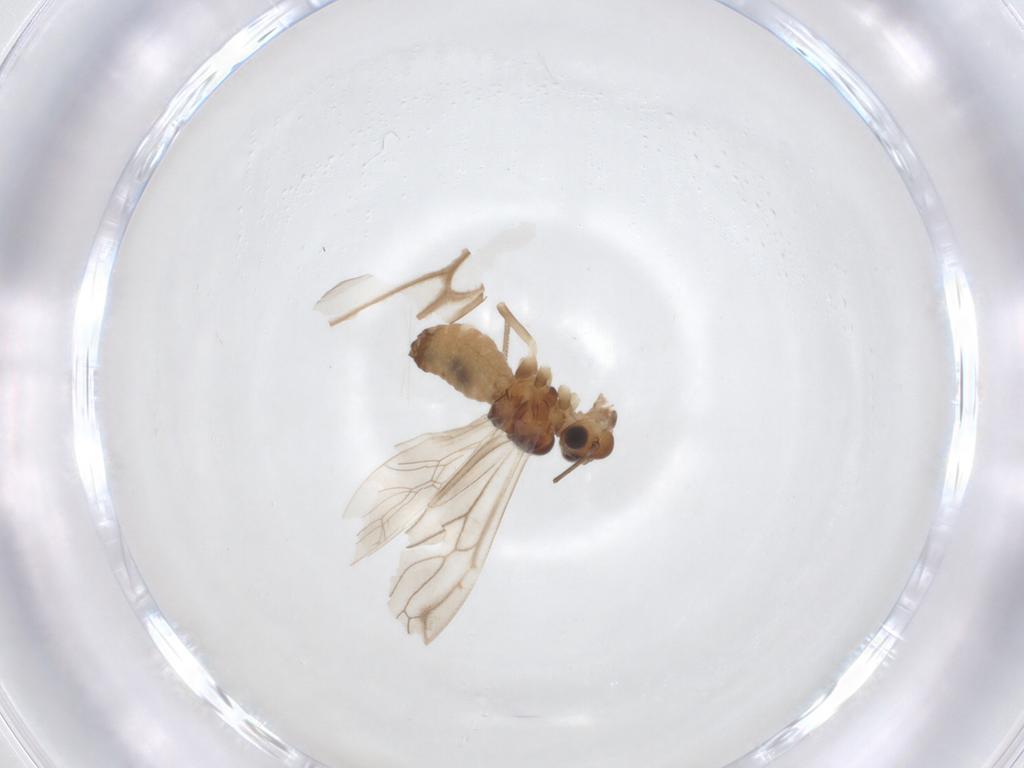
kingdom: Animalia
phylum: Arthropoda
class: Insecta
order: Psocodea
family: Philotarsidae
